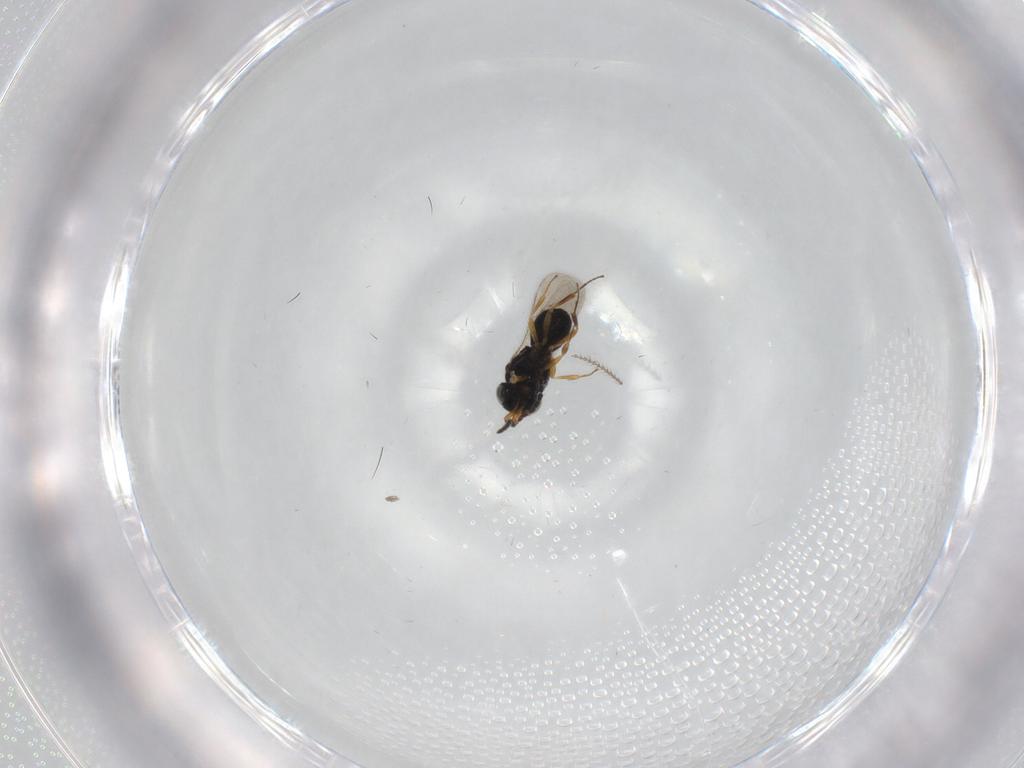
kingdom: Animalia
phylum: Arthropoda
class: Insecta
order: Hymenoptera
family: Scelionidae
